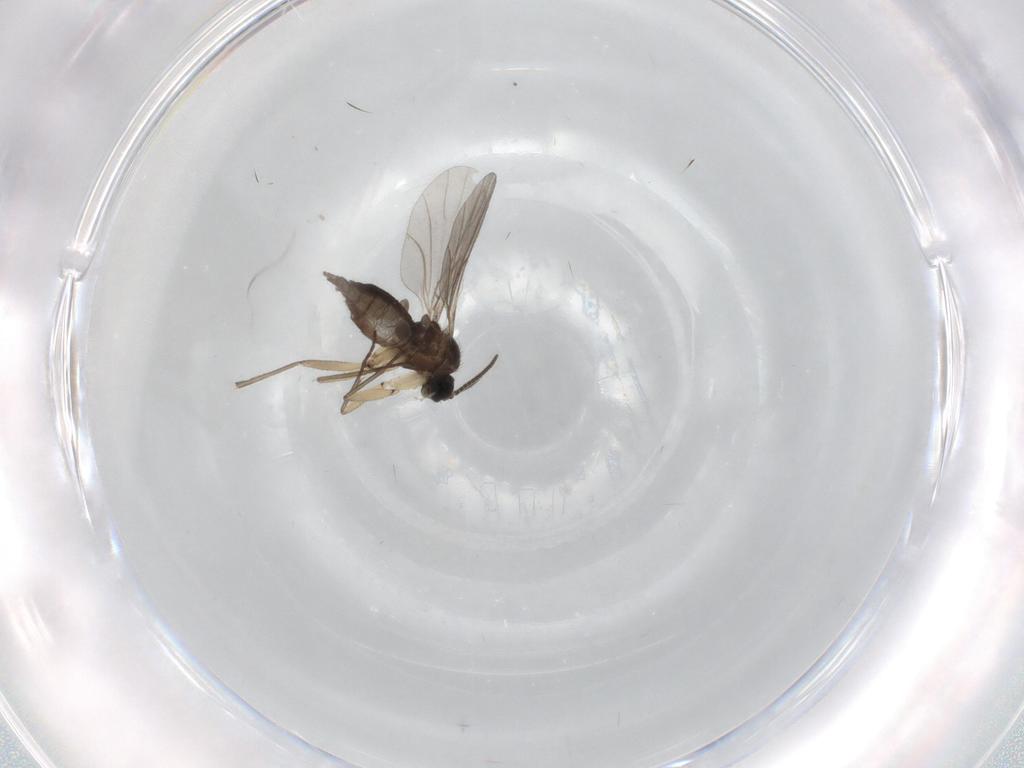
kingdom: Animalia
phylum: Arthropoda
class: Insecta
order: Diptera
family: Sciaridae
